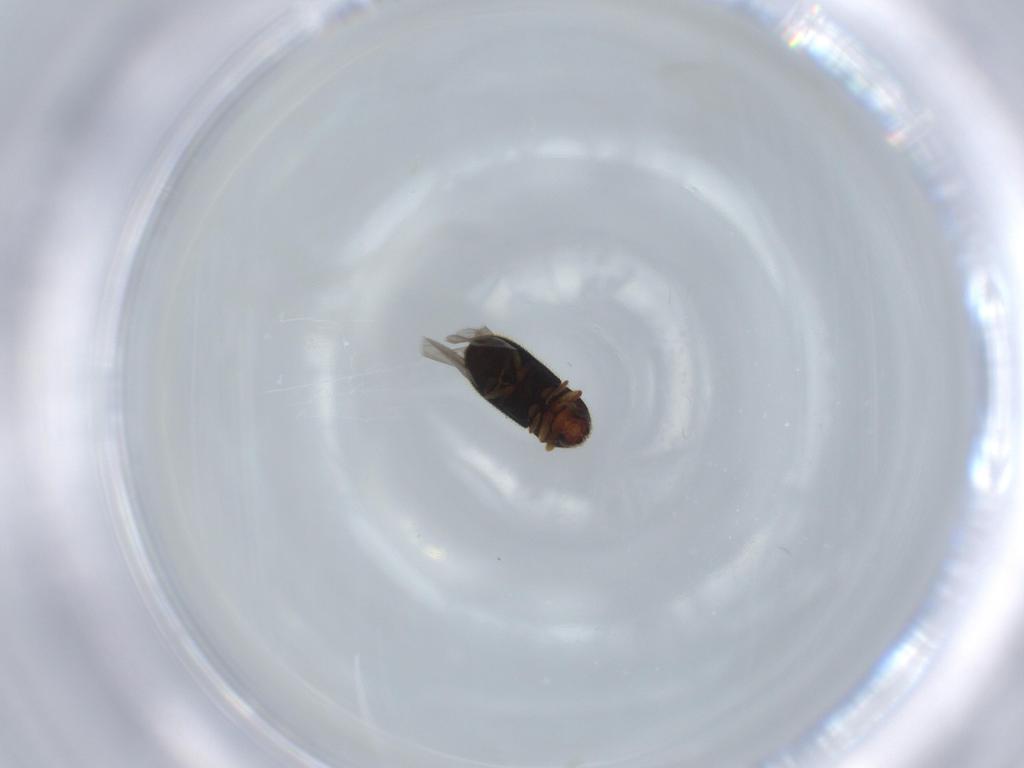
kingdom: Animalia
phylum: Arthropoda
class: Insecta
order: Coleoptera
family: Curculionidae
